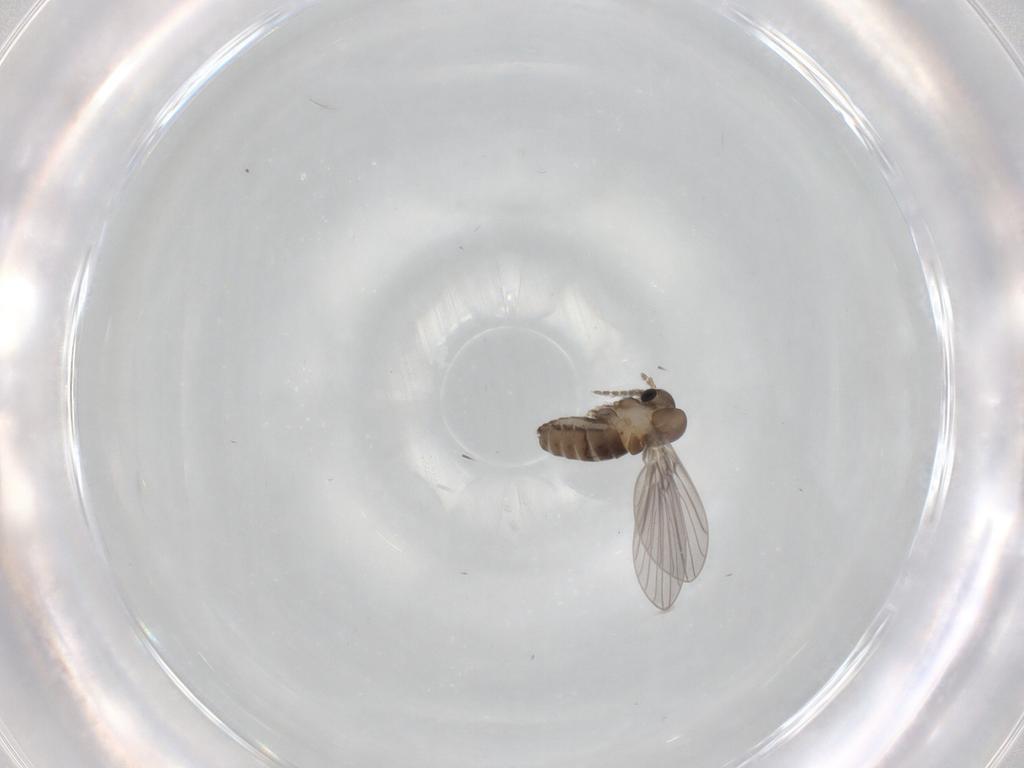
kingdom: Animalia
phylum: Arthropoda
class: Insecta
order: Diptera
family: Psychodidae
